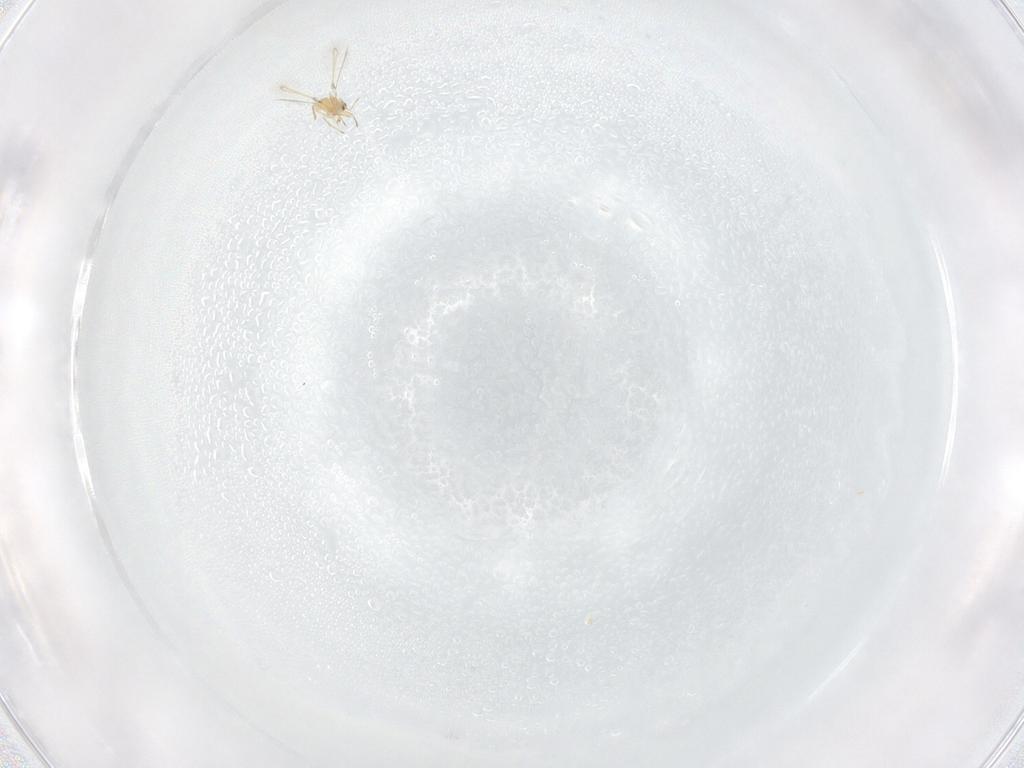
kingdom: Animalia
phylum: Arthropoda
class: Insecta
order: Hymenoptera
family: Mymaridae
